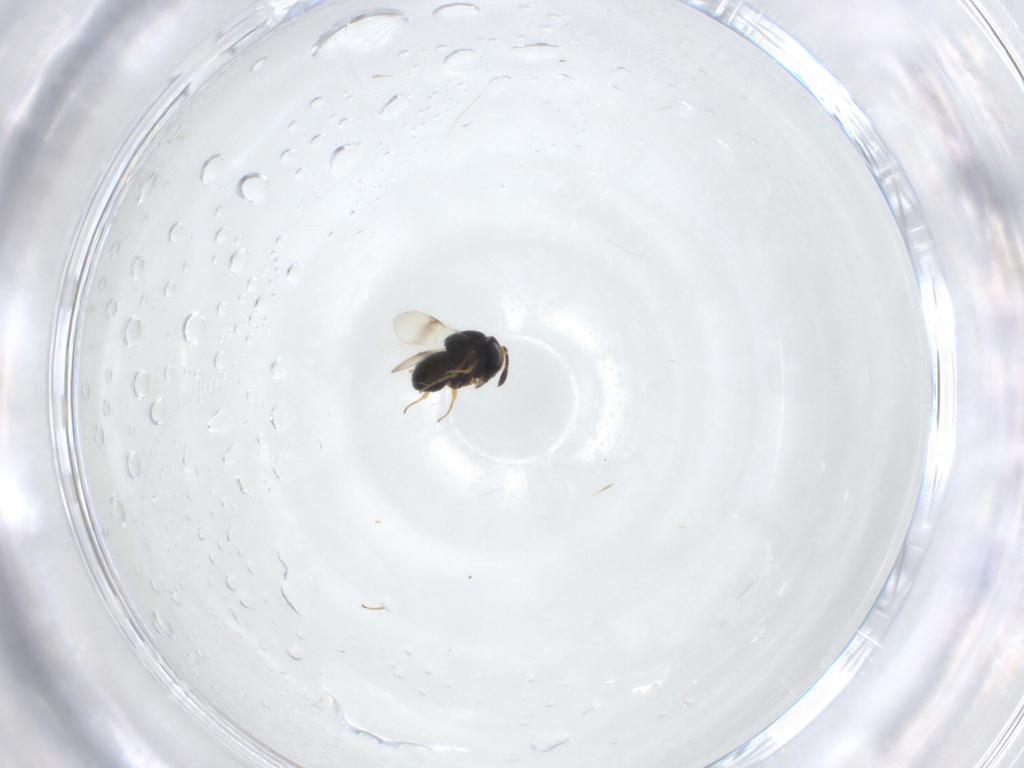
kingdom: Animalia
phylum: Arthropoda
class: Insecta
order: Hymenoptera
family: Scelionidae
